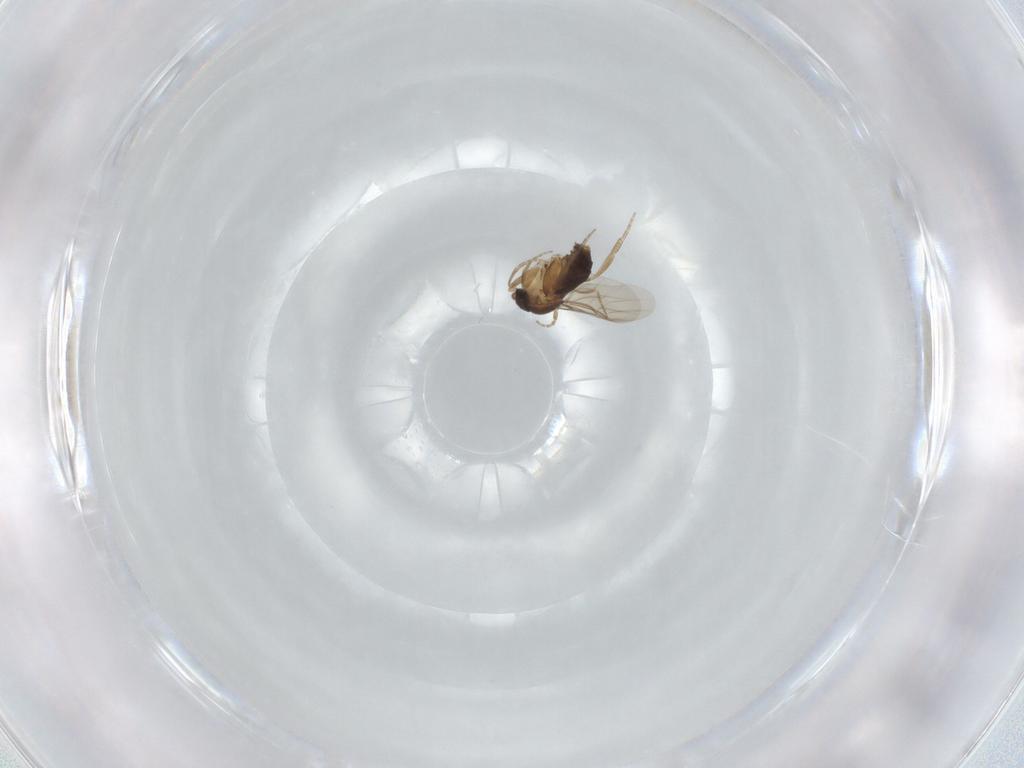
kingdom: Animalia
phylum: Arthropoda
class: Insecta
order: Diptera
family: Phoridae
